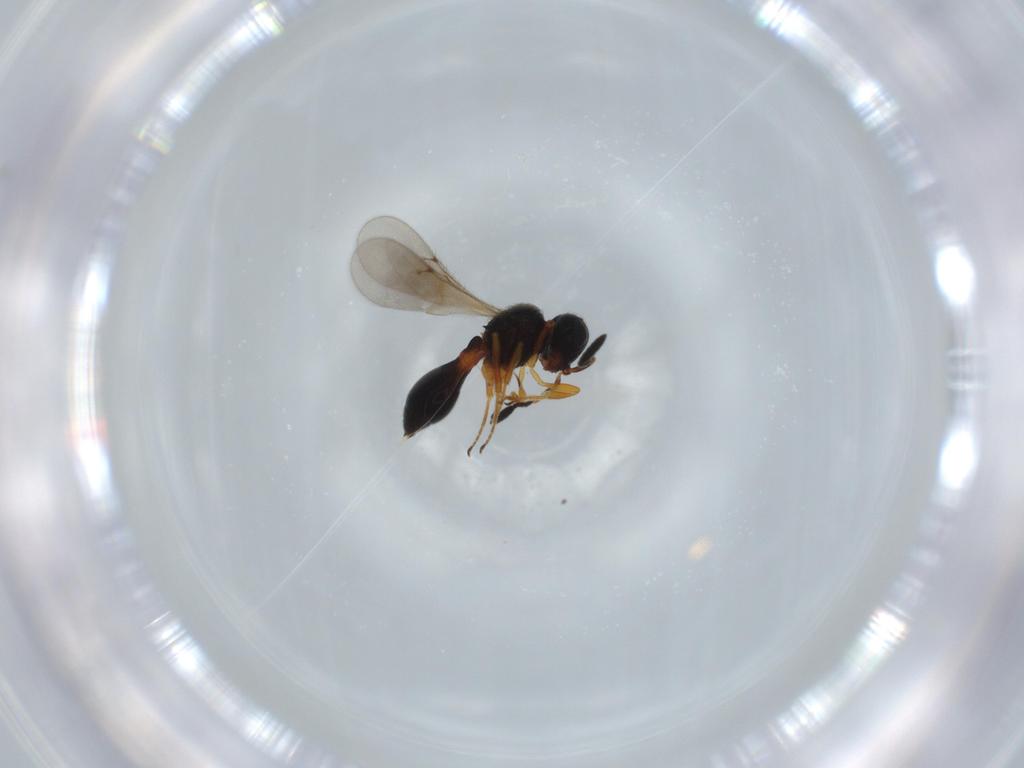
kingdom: Animalia
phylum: Arthropoda
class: Insecta
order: Hymenoptera
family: Scelionidae
